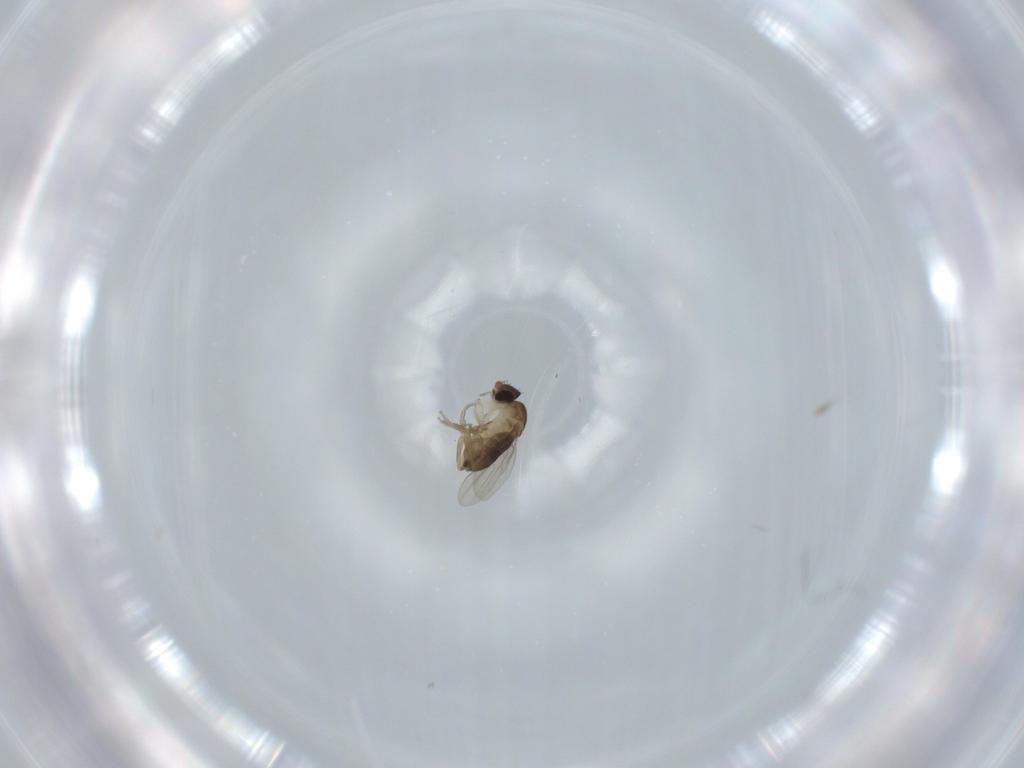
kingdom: Animalia
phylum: Arthropoda
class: Insecta
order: Diptera
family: Phoridae
